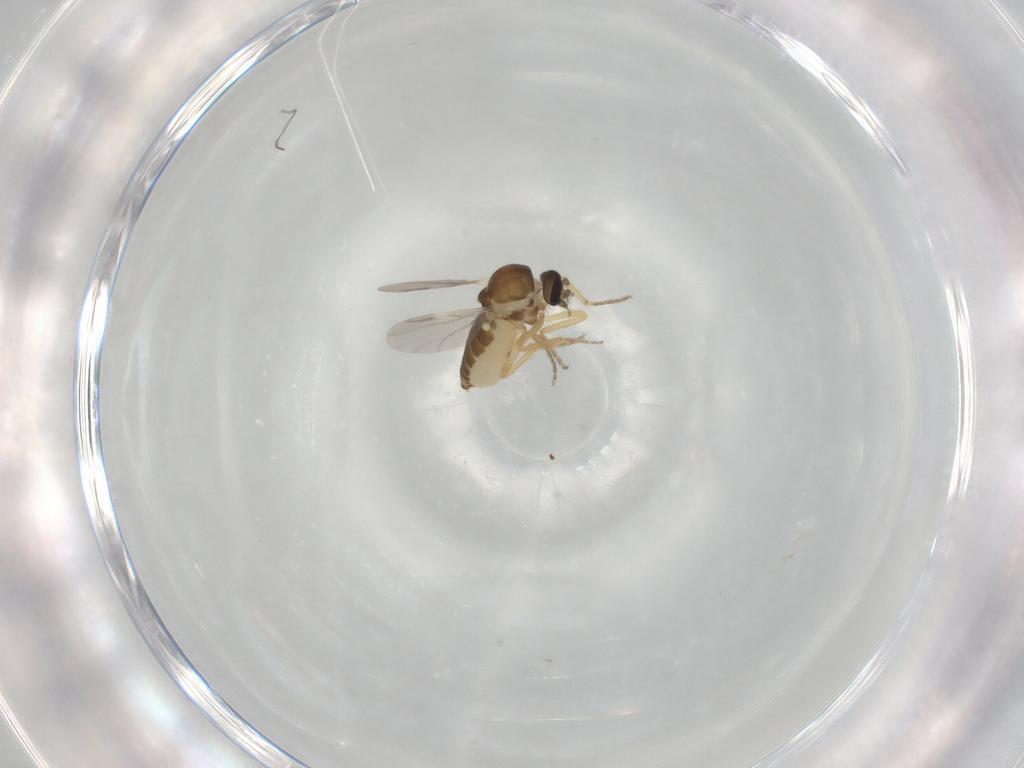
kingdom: Animalia
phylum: Arthropoda
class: Insecta
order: Diptera
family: Ceratopogonidae
